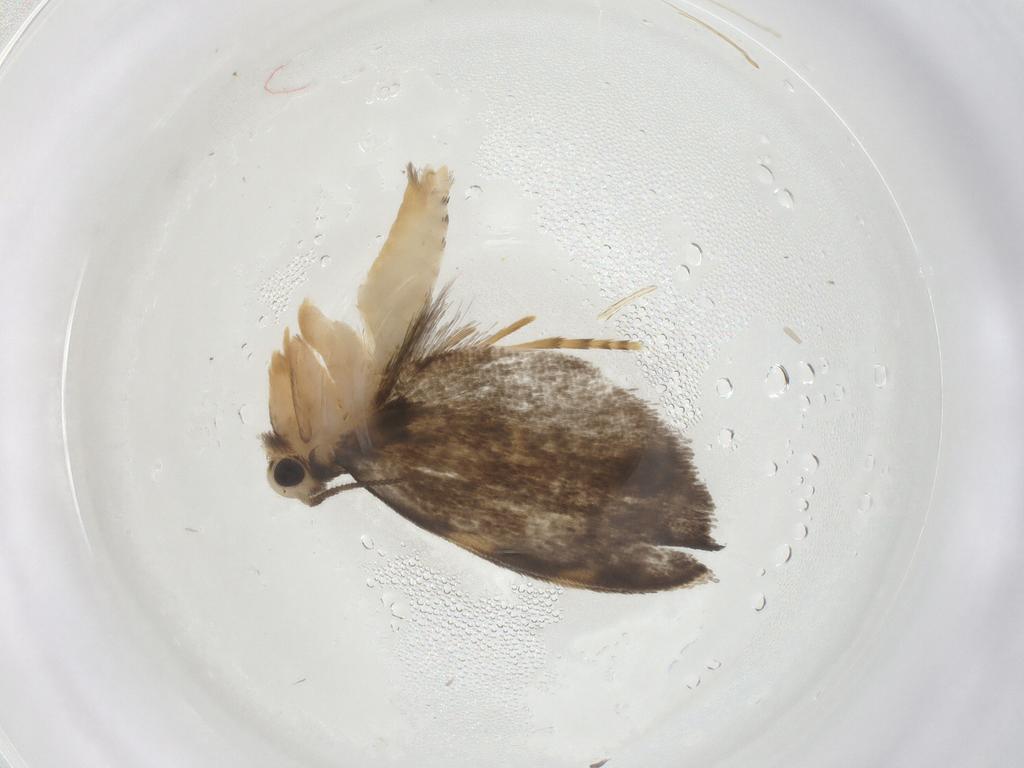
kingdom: Animalia
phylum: Arthropoda
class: Insecta
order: Lepidoptera
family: Tineidae
